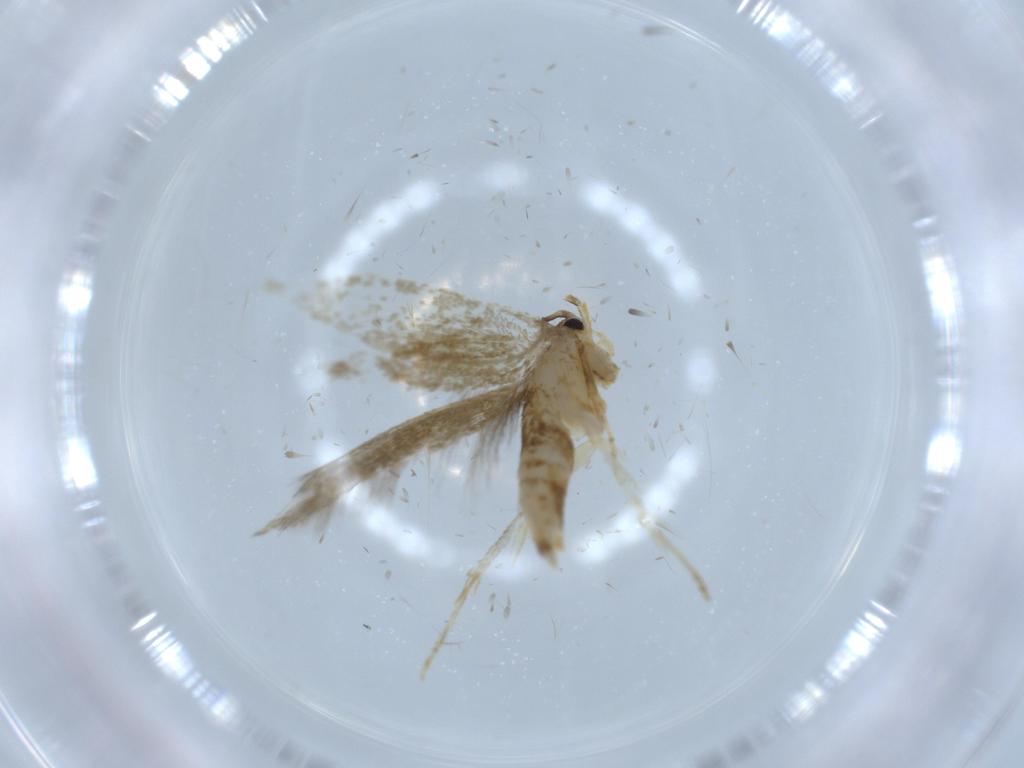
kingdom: Animalia
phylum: Arthropoda
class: Insecta
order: Lepidoptera
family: Tineidae
